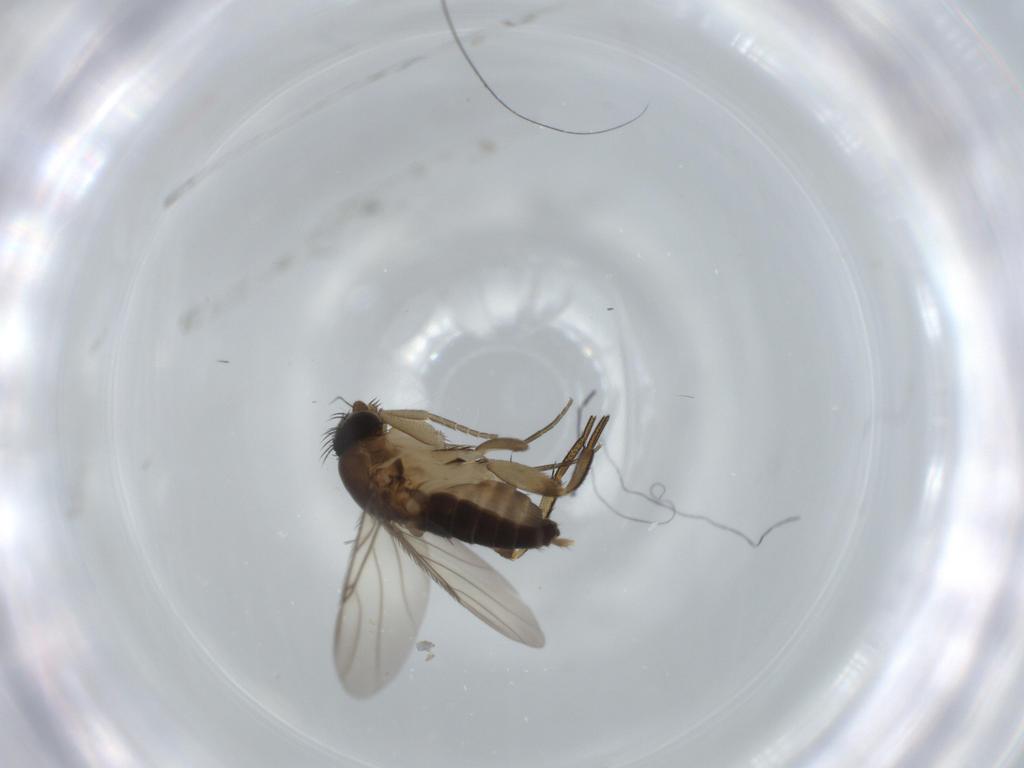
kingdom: Animalia
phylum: Arthropoda
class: Insecta
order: Diptera
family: Phoridae
